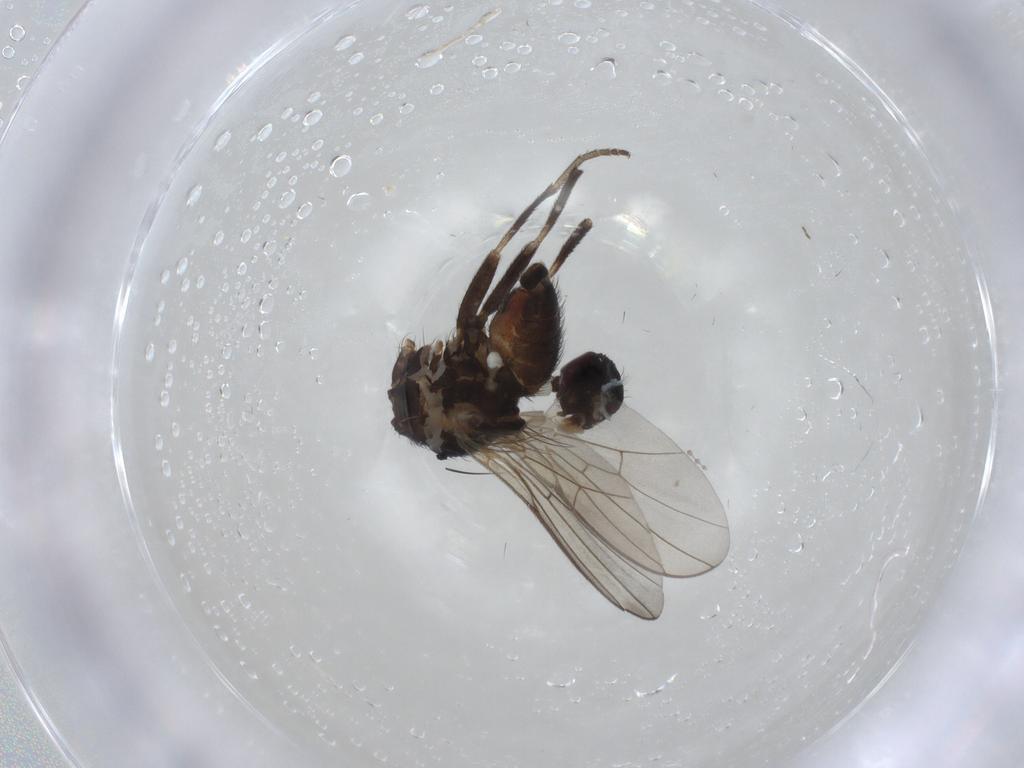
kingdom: Animalia
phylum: Arthropoda
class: Insecta
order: Diptera
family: Agromyzidae
